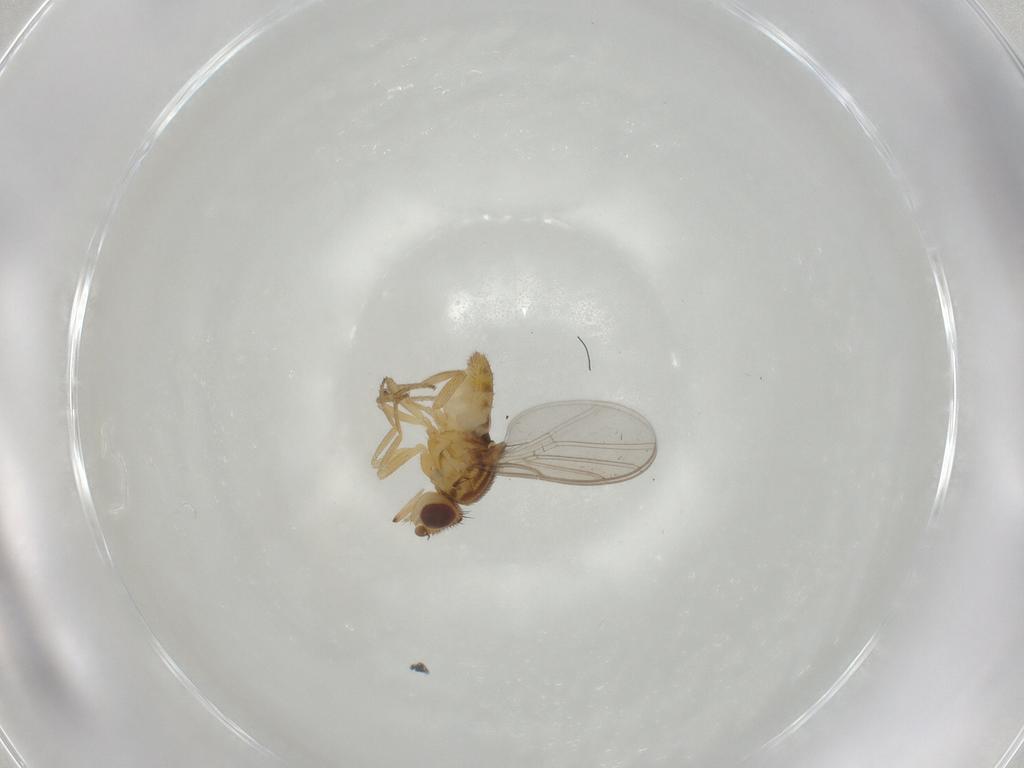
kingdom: Animalia
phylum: Arthropoda
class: Insecta
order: Diptera
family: Chloropidae
